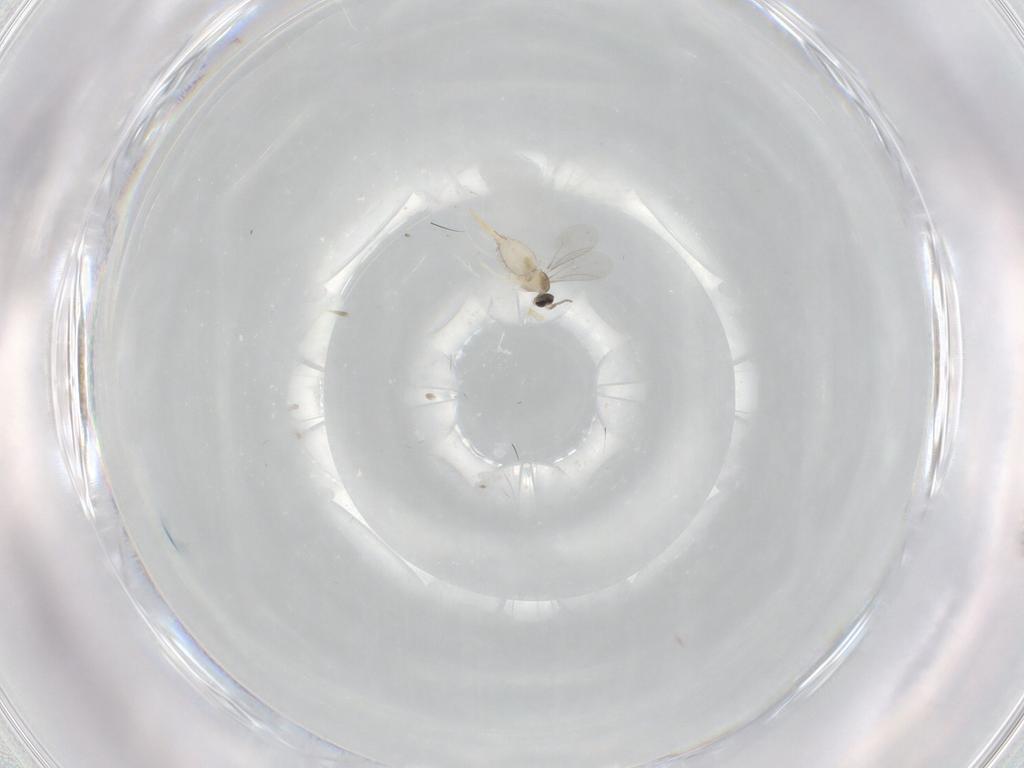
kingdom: Animalia
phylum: Arthropoda
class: Insecta
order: Diptera
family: Cecidomyiidae
